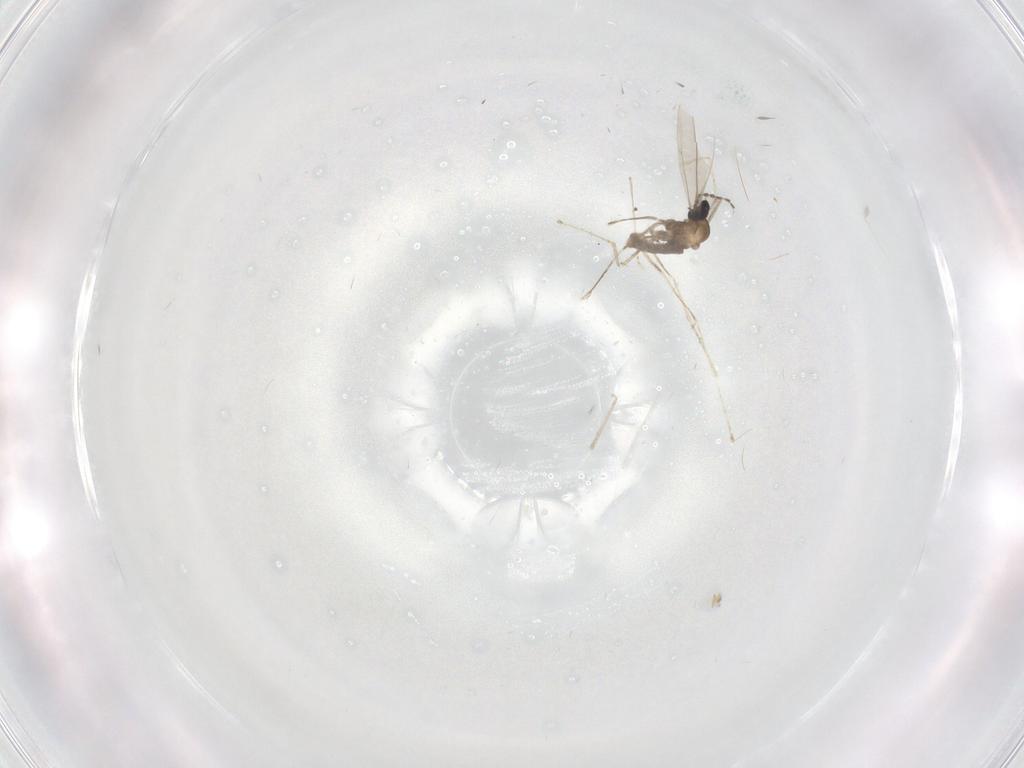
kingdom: Animalia
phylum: Arthropoda
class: Insecta
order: Diptera
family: Cecidomyiidae
